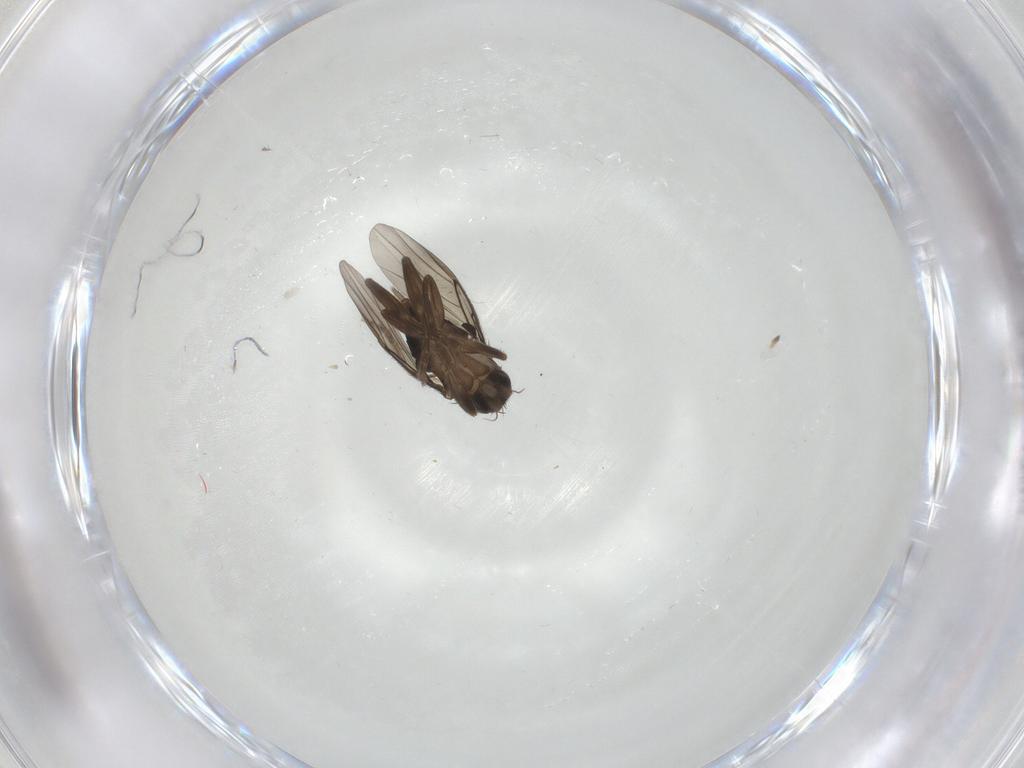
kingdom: Animalia
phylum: Arthropoda
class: Insecta
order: Diptera
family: Phoridae
